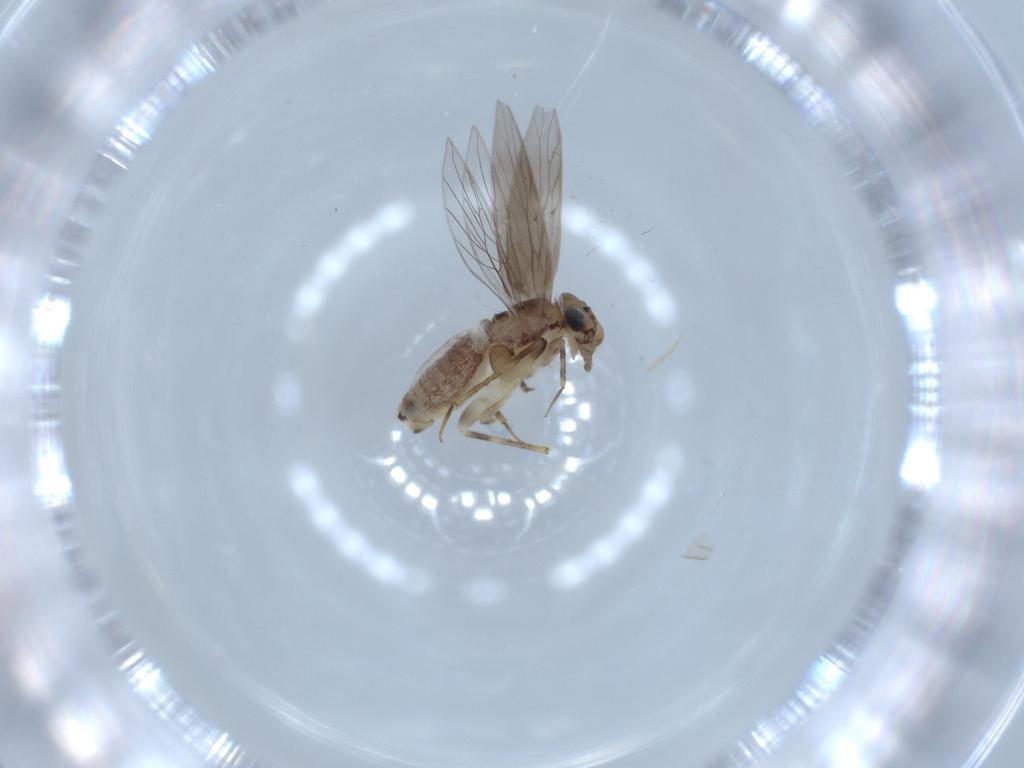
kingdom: Animalia
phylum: Arthropoda
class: Insecta
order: Psocodea
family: Lepidopsocidae
